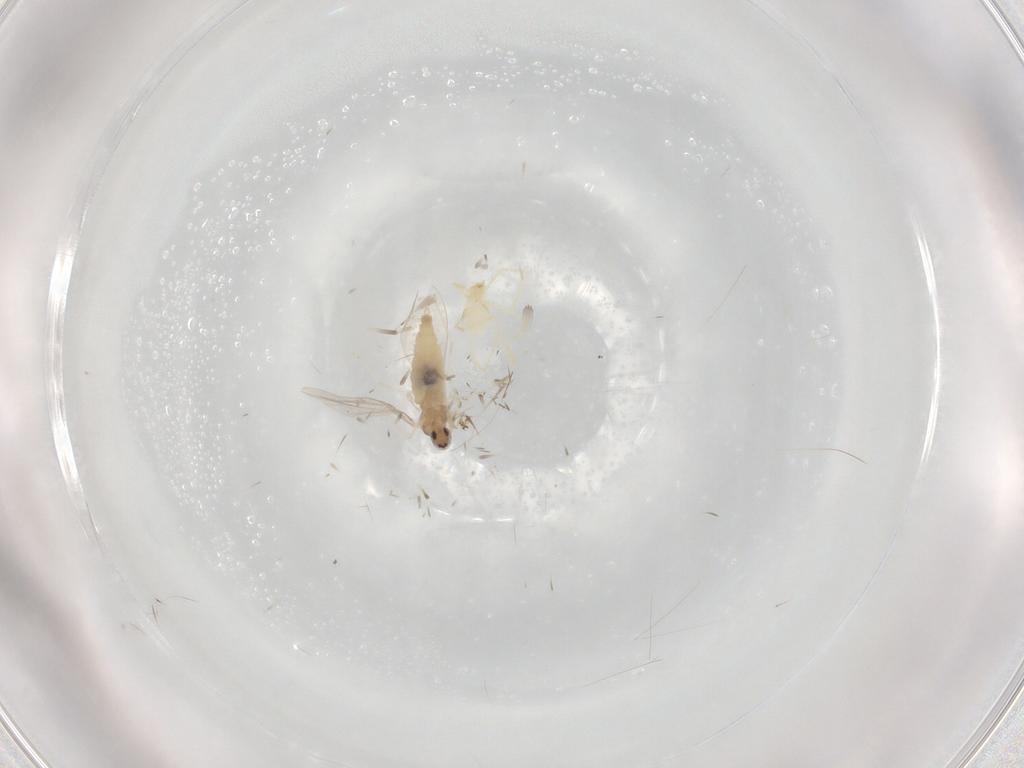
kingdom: Animalia
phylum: Arthropoda
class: Insecta
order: Diptera
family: Cecidomyiidae
